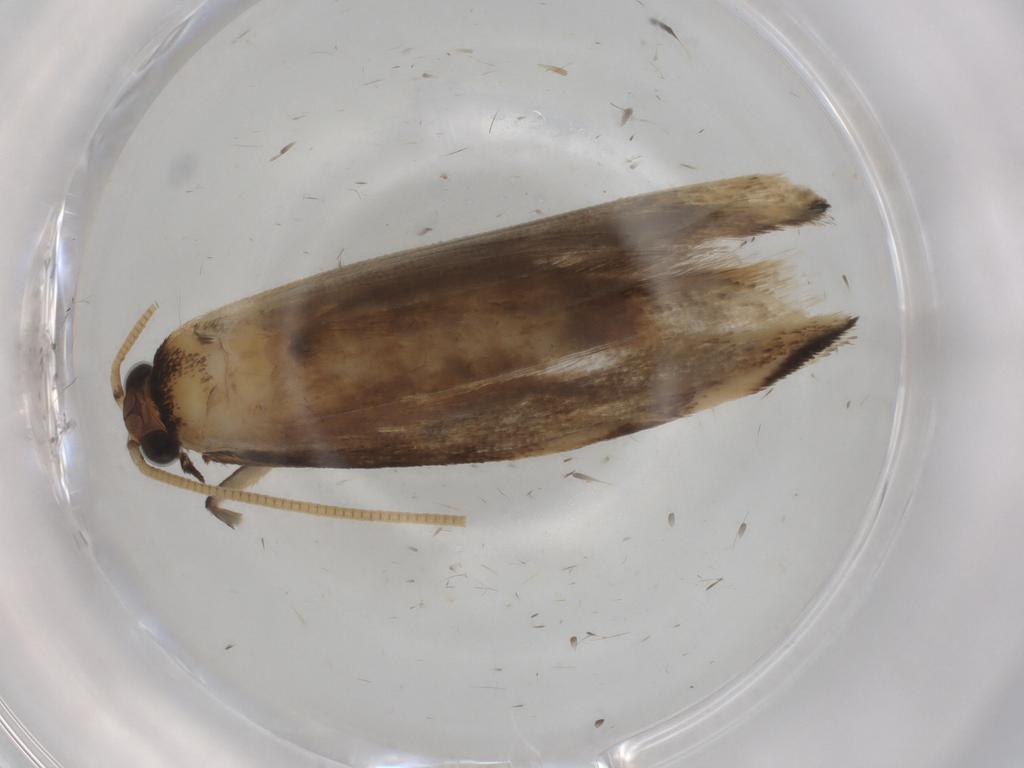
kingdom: Animalia
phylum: Arthropoda
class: Insecta
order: Lepidoptera
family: Tineidae
